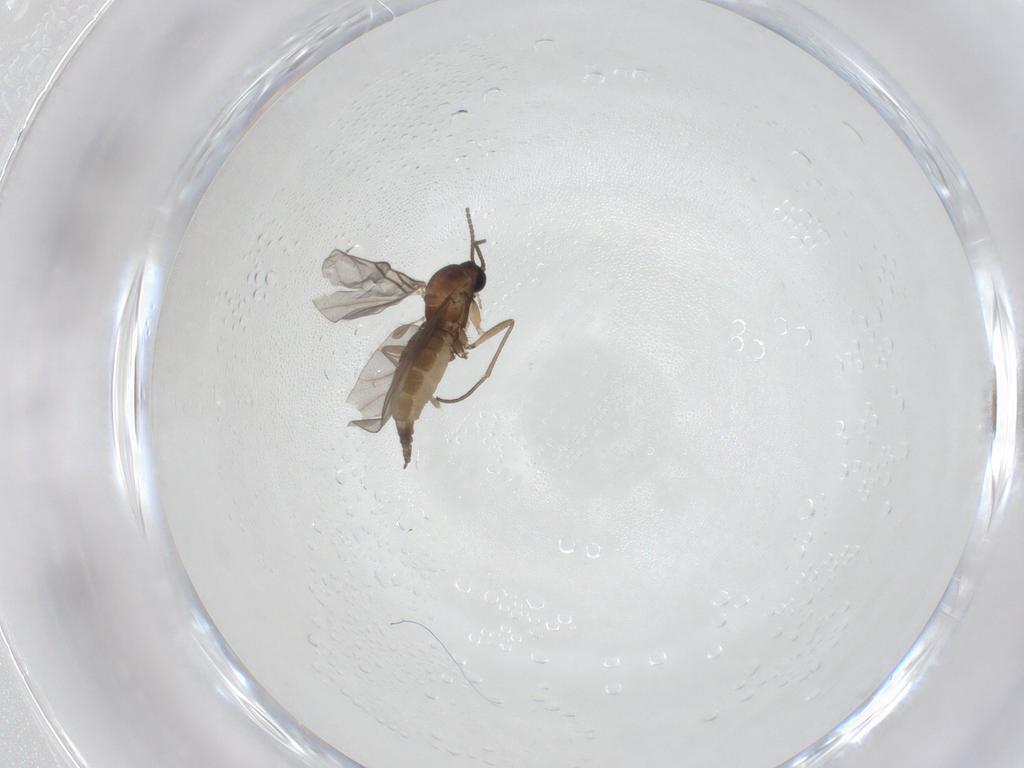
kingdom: Animalia
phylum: Arthropoda
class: Insecta
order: Diptera
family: Sciaridae
